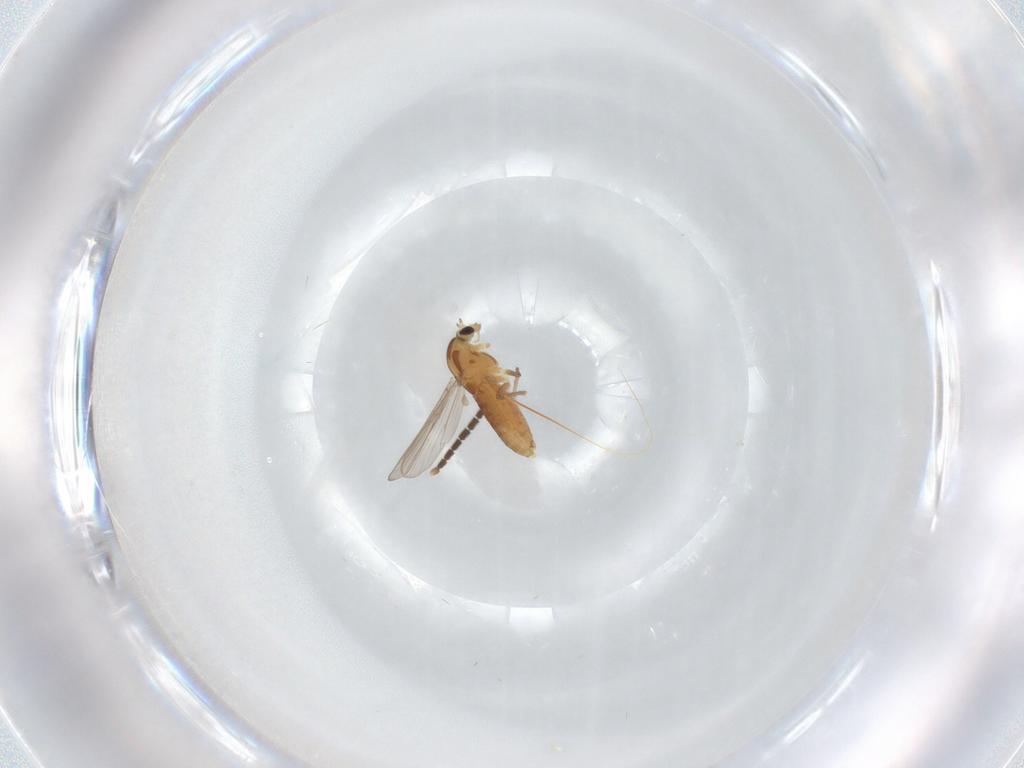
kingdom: Animalia
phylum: Arthropoda
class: Insecta
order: Diptera
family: Chironomidae
